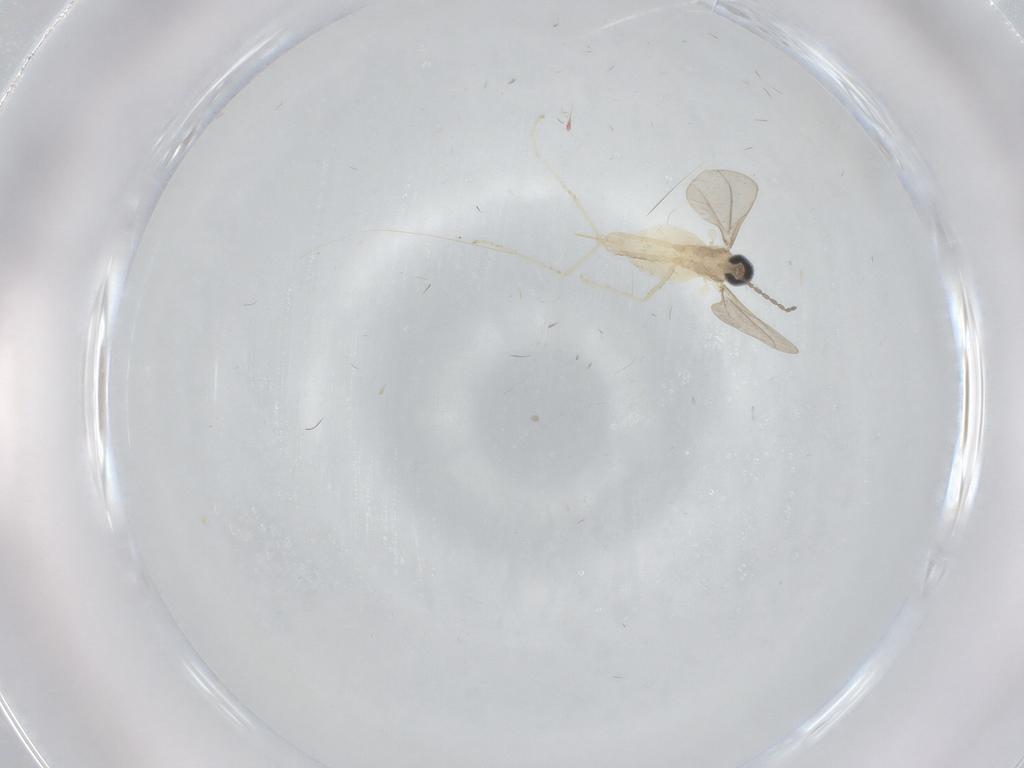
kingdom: Animalia
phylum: Arthropoda
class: Insecta
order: Diptera
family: Cecidomyiidae
